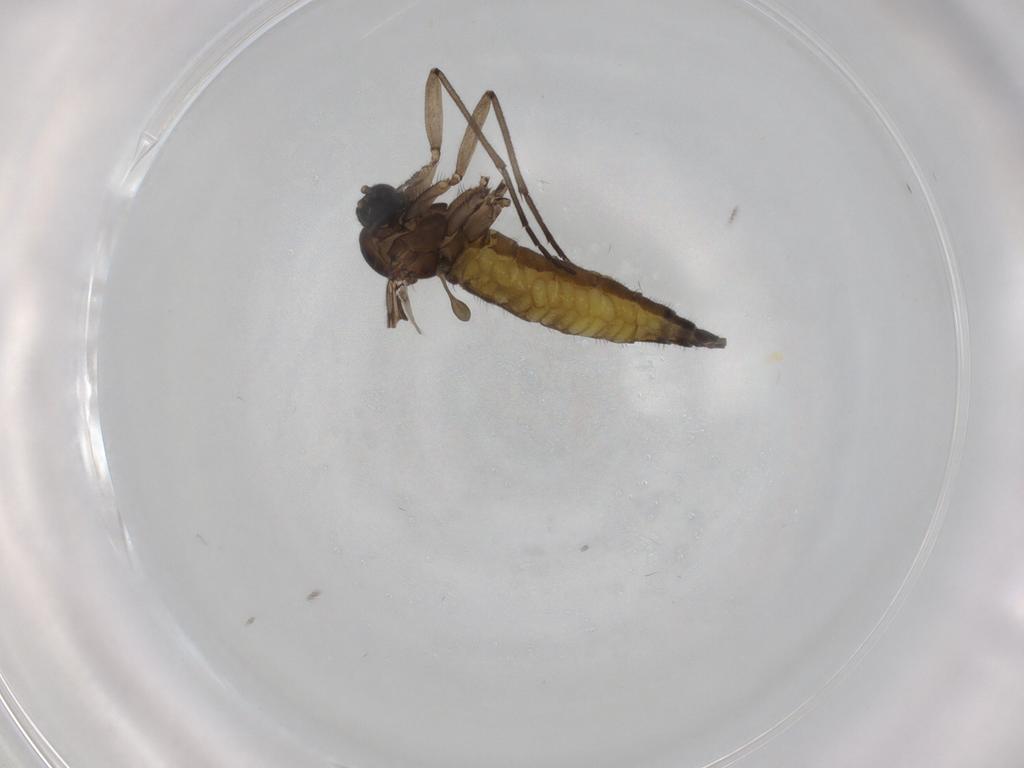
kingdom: Animalia
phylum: Arthropoda
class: Insecta
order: Diptera
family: Sciaridae
